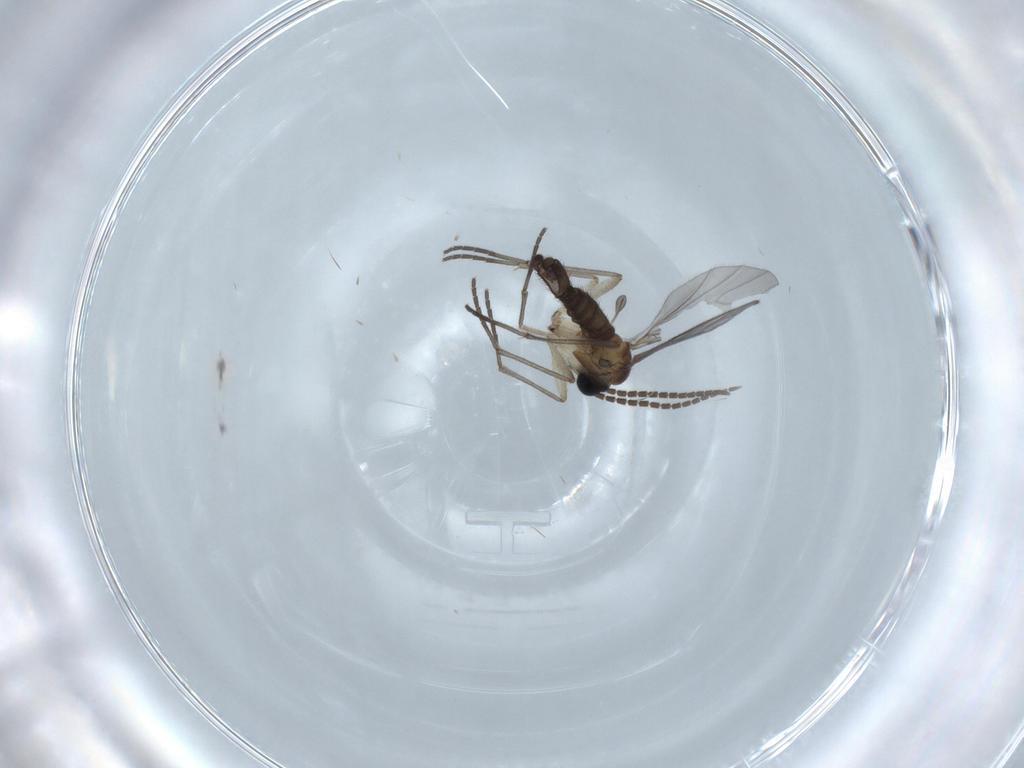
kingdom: Animalia
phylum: Arthropoda
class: Insecta
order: Diptera
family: Sciaridae
